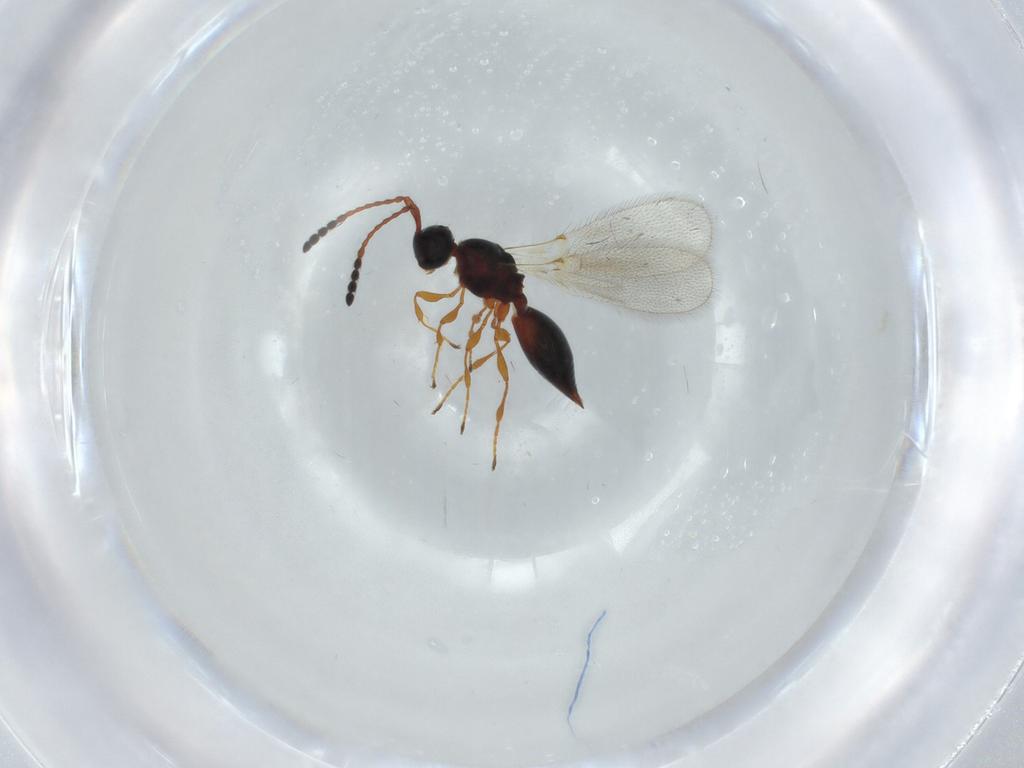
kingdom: Animalia
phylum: Arthropoda
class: Insecta
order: Hymenoptera
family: Diapriidae
